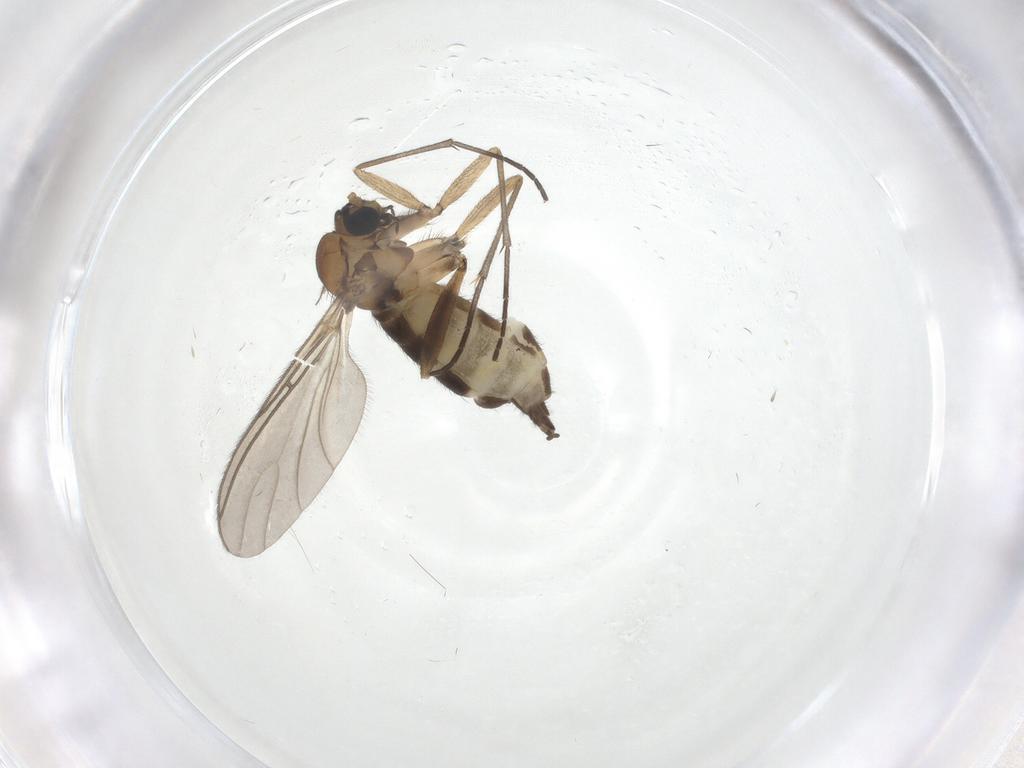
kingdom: Animalia
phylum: Arthropoda
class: Insecta
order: Diptera
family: Sciaridae
